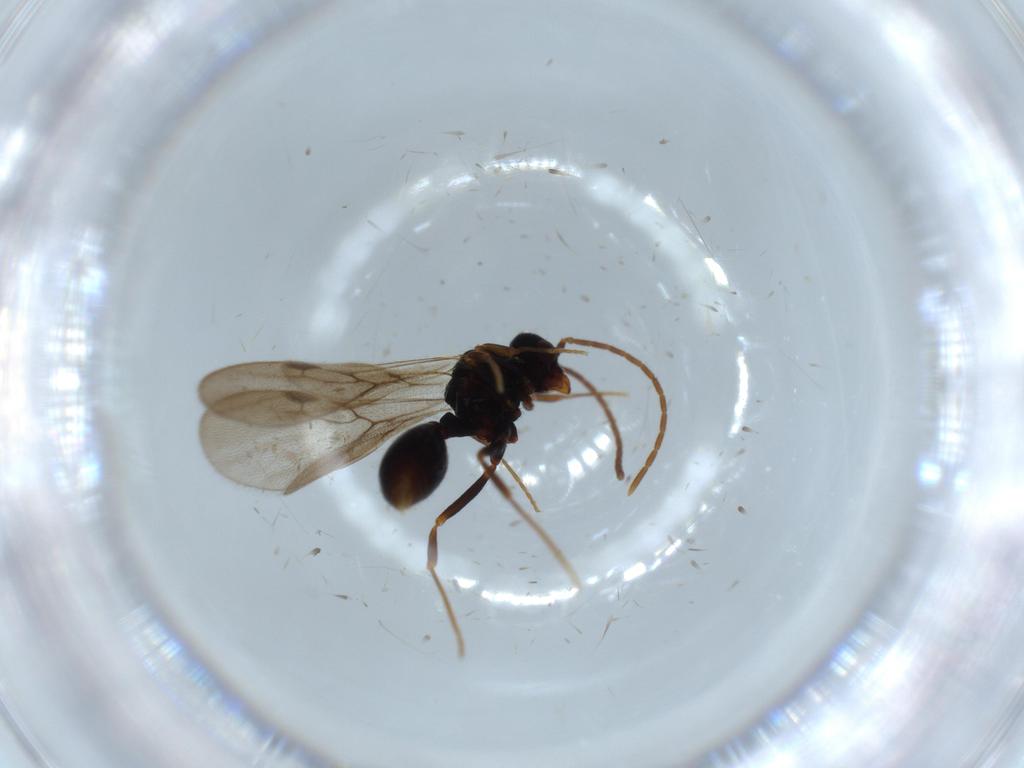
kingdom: Animalia
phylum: Arthropoda
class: Insecta
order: Hymenoptera
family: Formicidae
